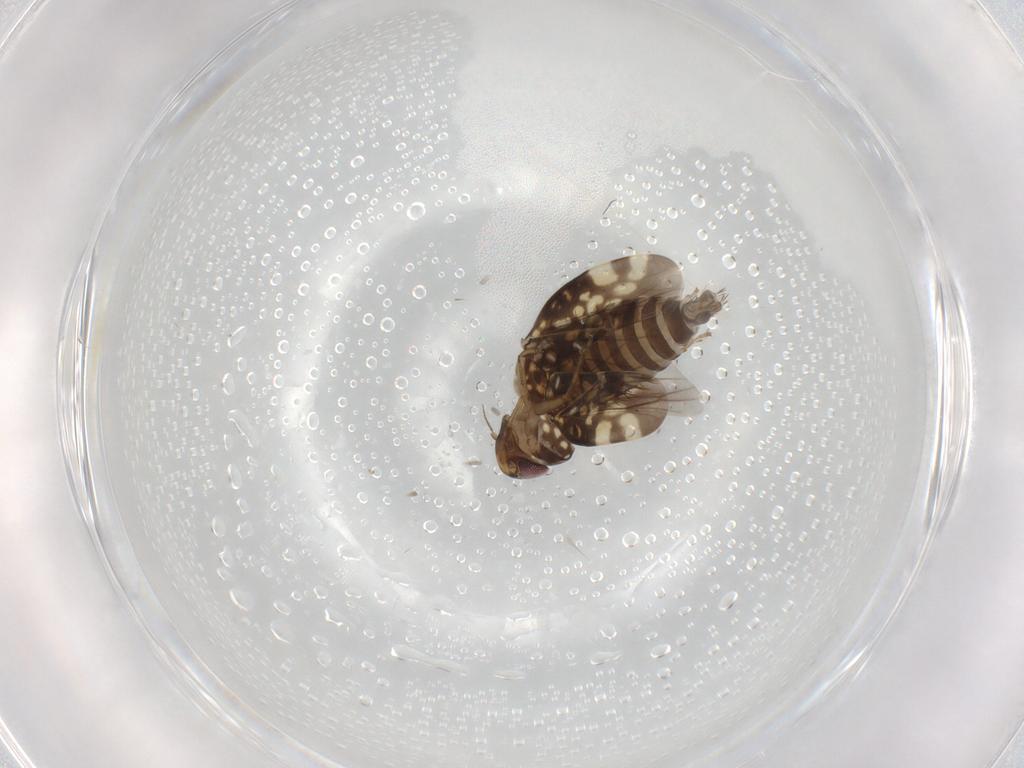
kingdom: Animalia
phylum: Arthropoda
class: Insecta
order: Hemiptera
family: Cicadellidae
